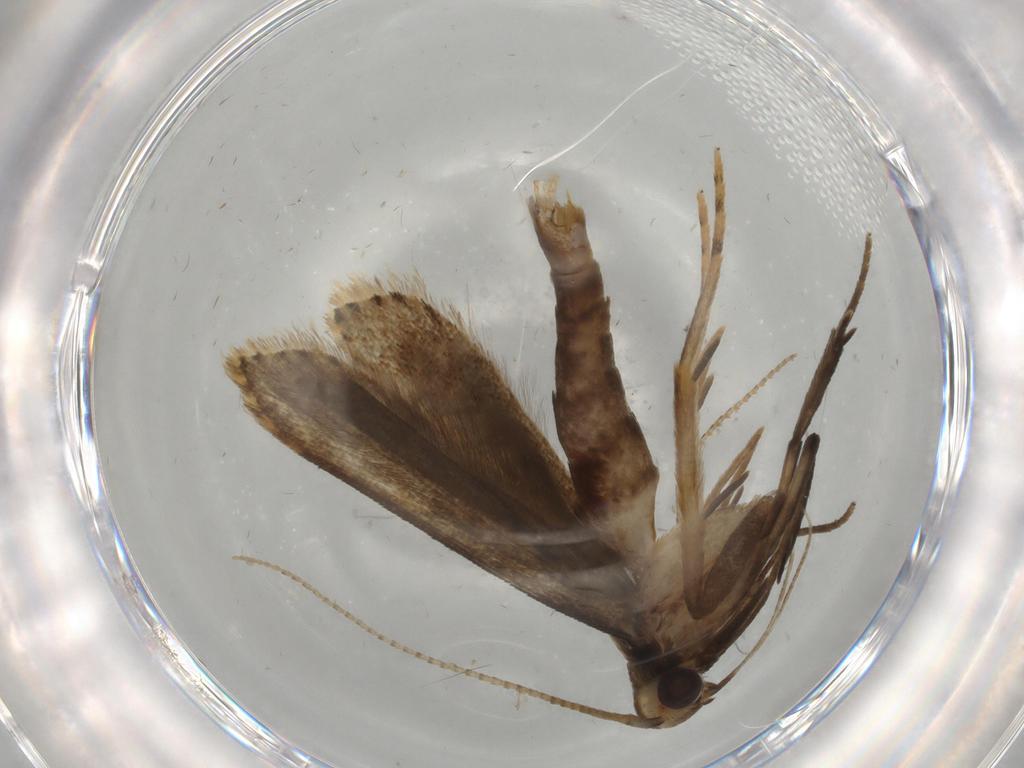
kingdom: Animalia
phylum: Arthropoda
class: Insecta
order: Lepidoptera
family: Gelechiidae
